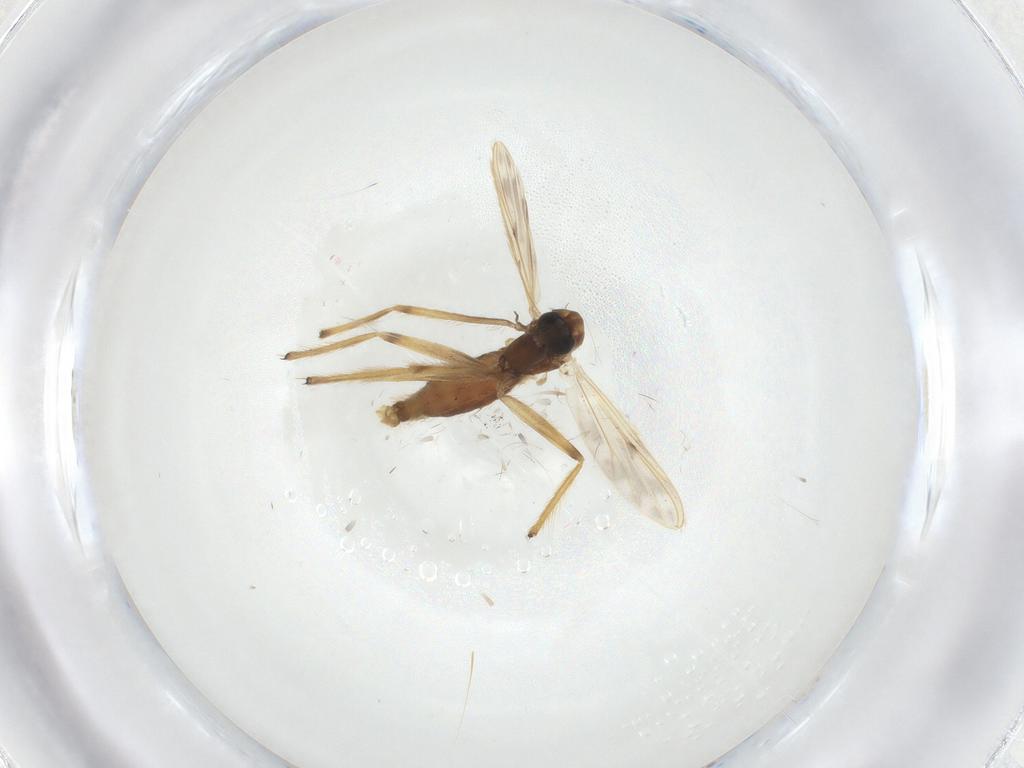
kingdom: Animalia
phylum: Arthropoda
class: Insecta
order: Diptera
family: Chironomidae
